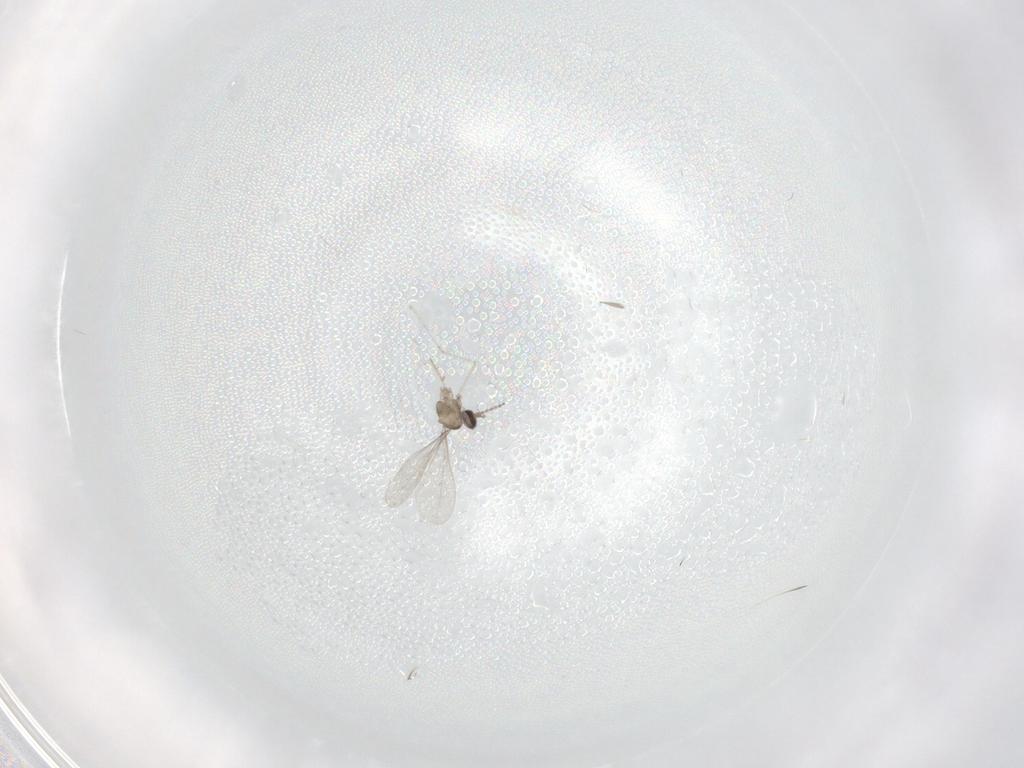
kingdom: Animalia
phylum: Arthropoda
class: Insecta
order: Diptera
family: Cecidomyiidae
